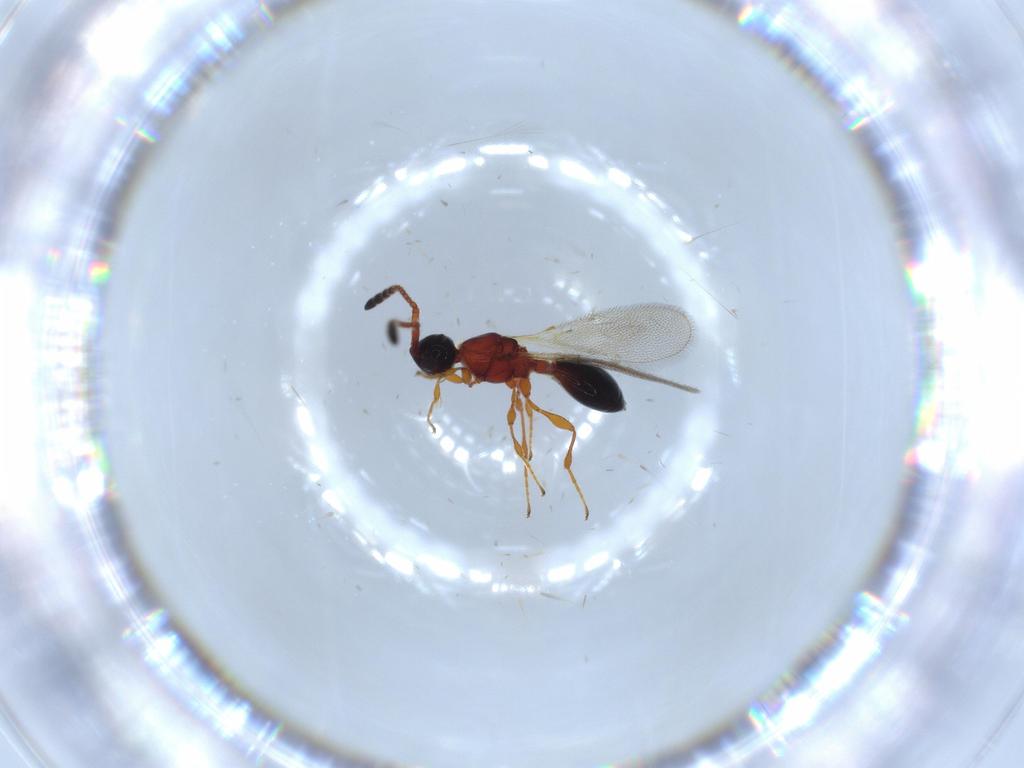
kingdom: Animalia
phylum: Arthropoda
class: Insecta
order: Hymenoptera
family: Diapriidae
